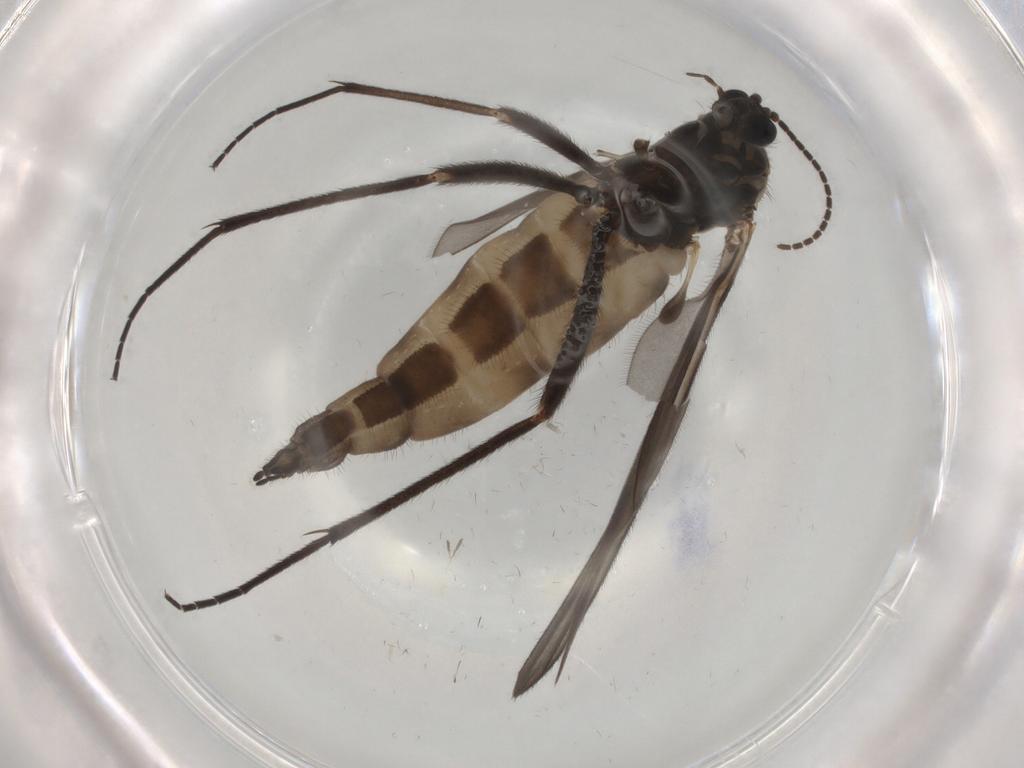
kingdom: Animalia
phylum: Arthropoda
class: Insecta
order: Diptera
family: Sciaridae
